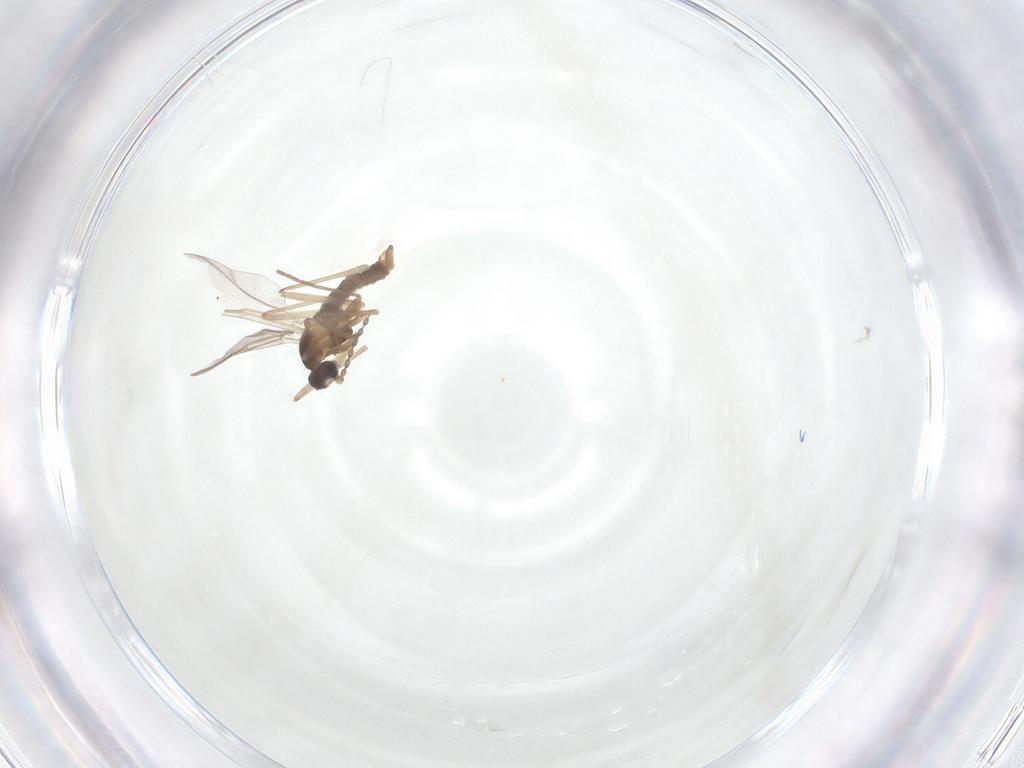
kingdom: Animalia
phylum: Arthropoda
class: Insecta
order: Diptera
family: Cecidomyiidae
